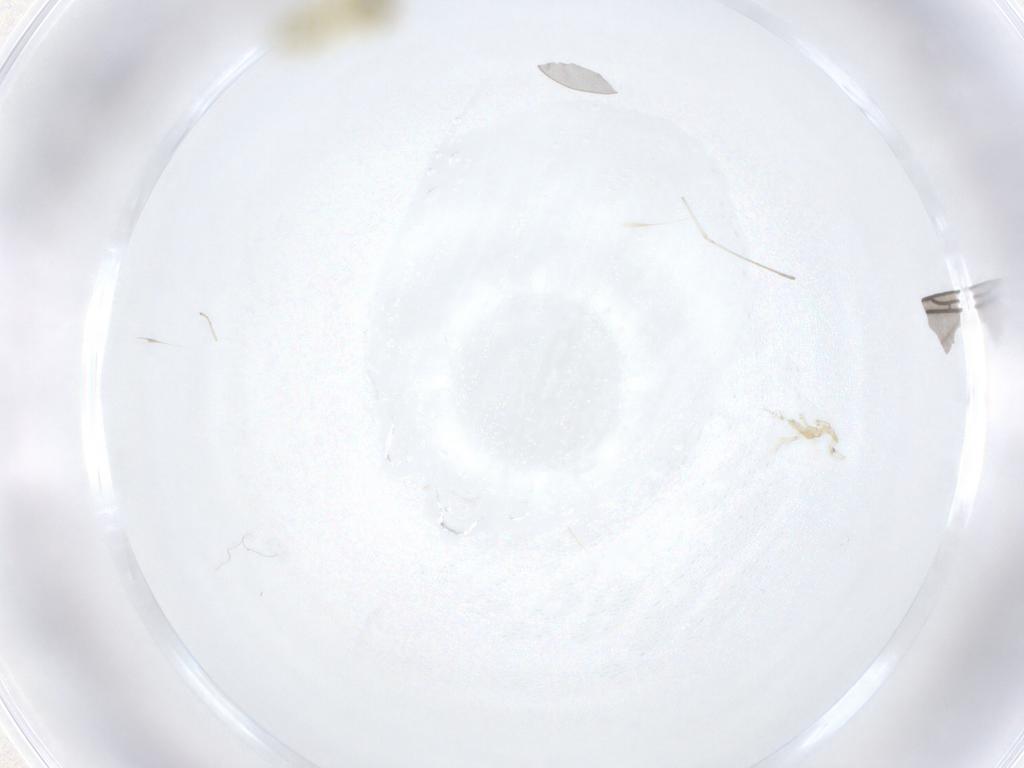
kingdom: Animalia
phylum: Arthropoda
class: Insecta
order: Diptera
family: Sciaridae
